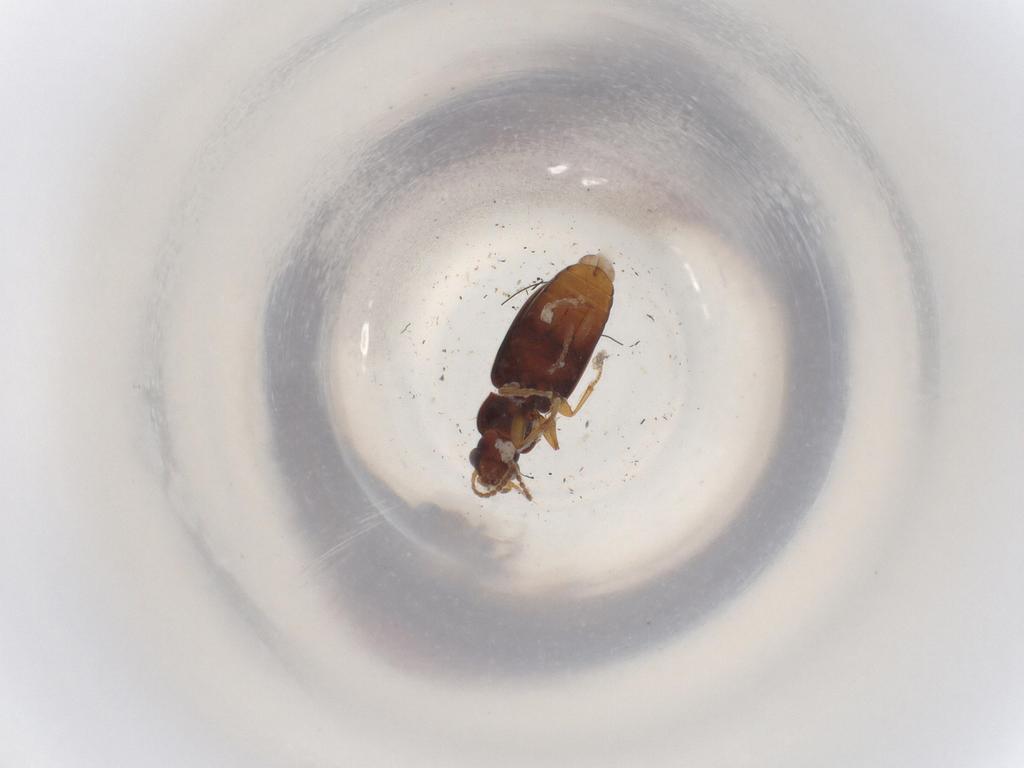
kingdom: Animalia
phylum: Arthropoda
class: Insecta
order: Coleoptera
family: Carabidae
